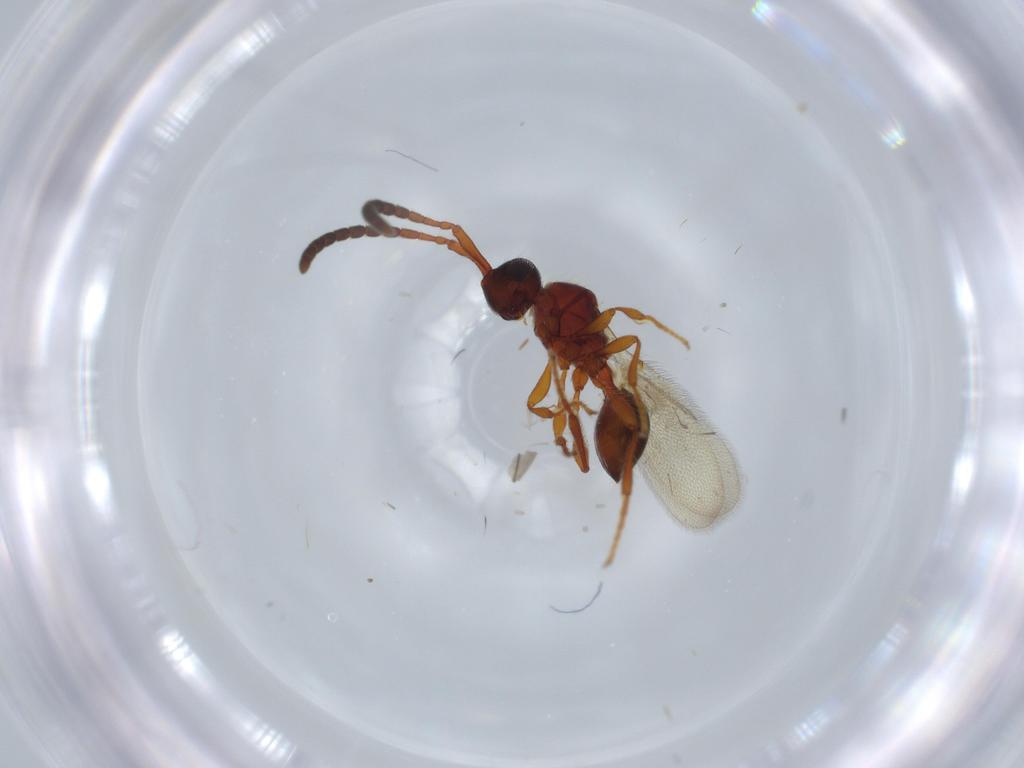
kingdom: Animalia
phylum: Arthropoda
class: Insecta
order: Hymenoptera
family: Diapriidae
